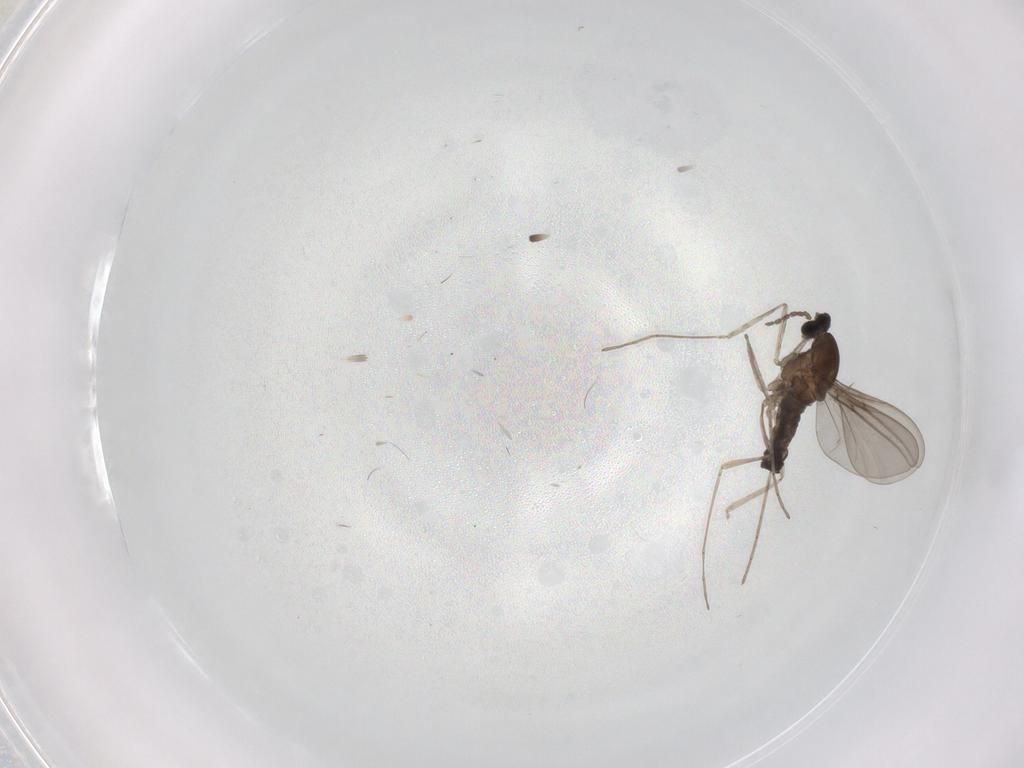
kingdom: Animalia
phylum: Arthropoda
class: Insecta
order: Diptera
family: Cecidomyiidae
